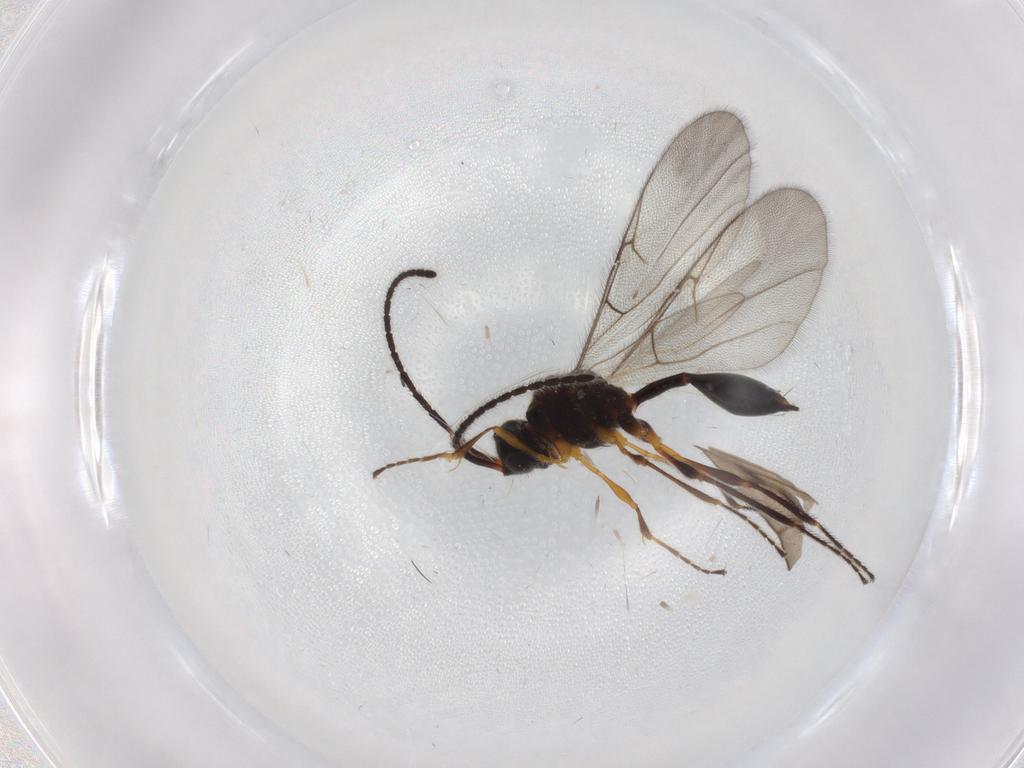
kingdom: Animalia
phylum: Arthropoda
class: Insecta
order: Hymenoptera
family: Diapriidae
